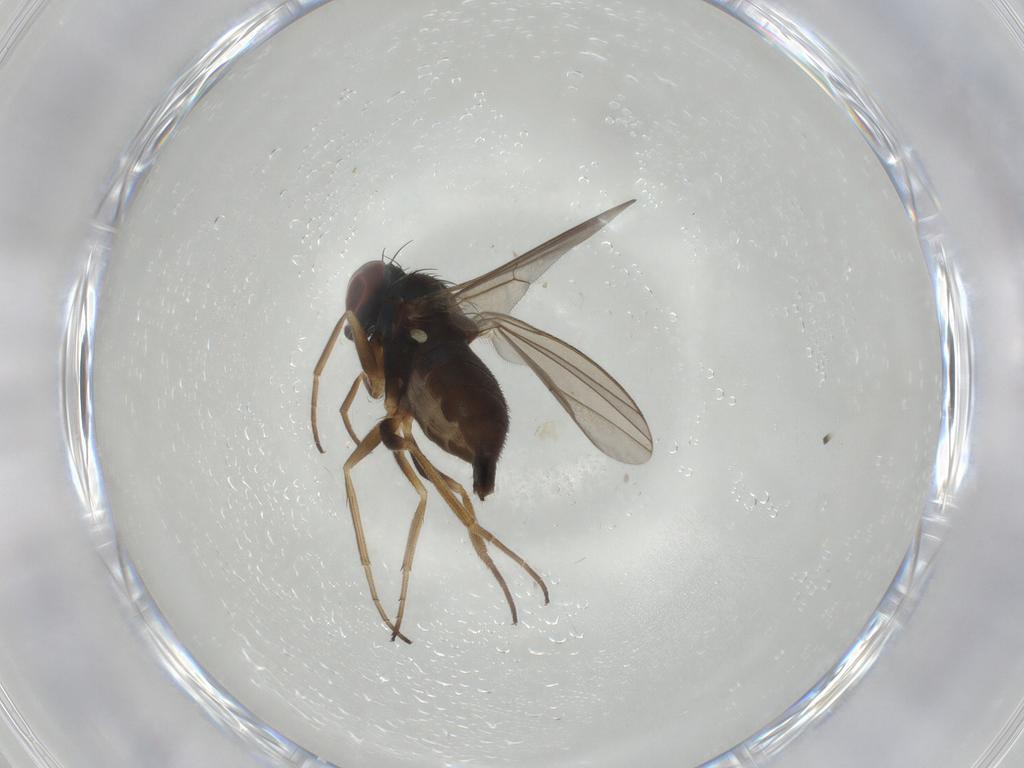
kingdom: Animalia
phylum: Arthropoda
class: Insecta
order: Diptera
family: Dolichopodidae
